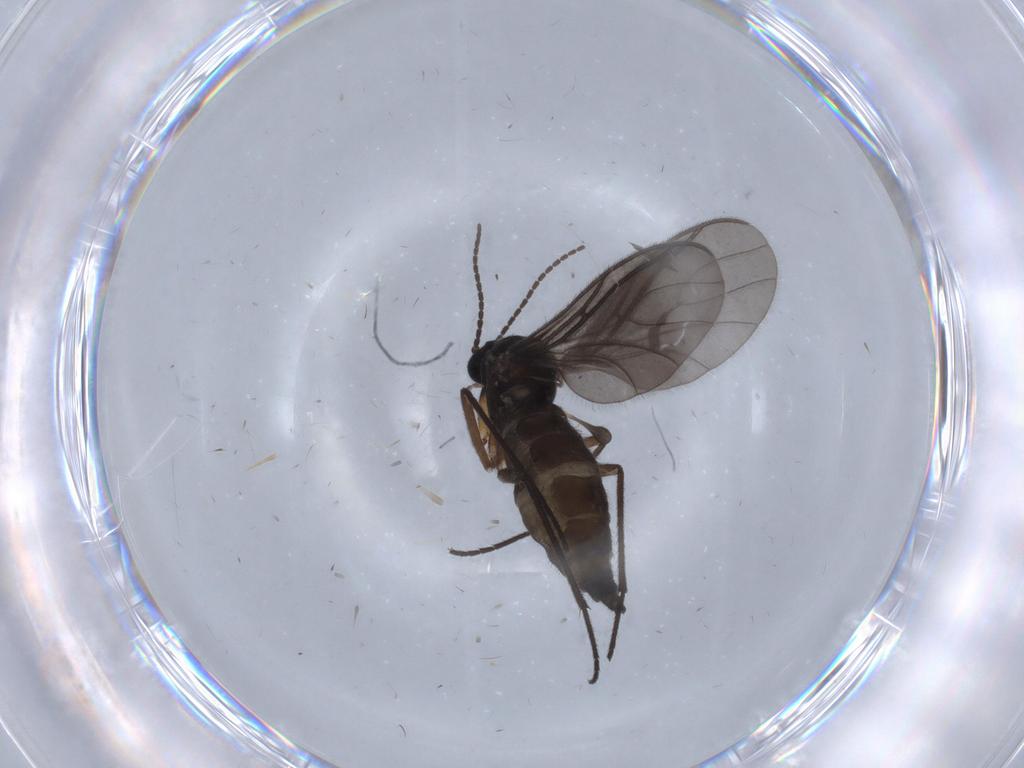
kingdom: Animalia
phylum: Arthropoda
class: Insecta
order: Diptera
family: Sciaridae
